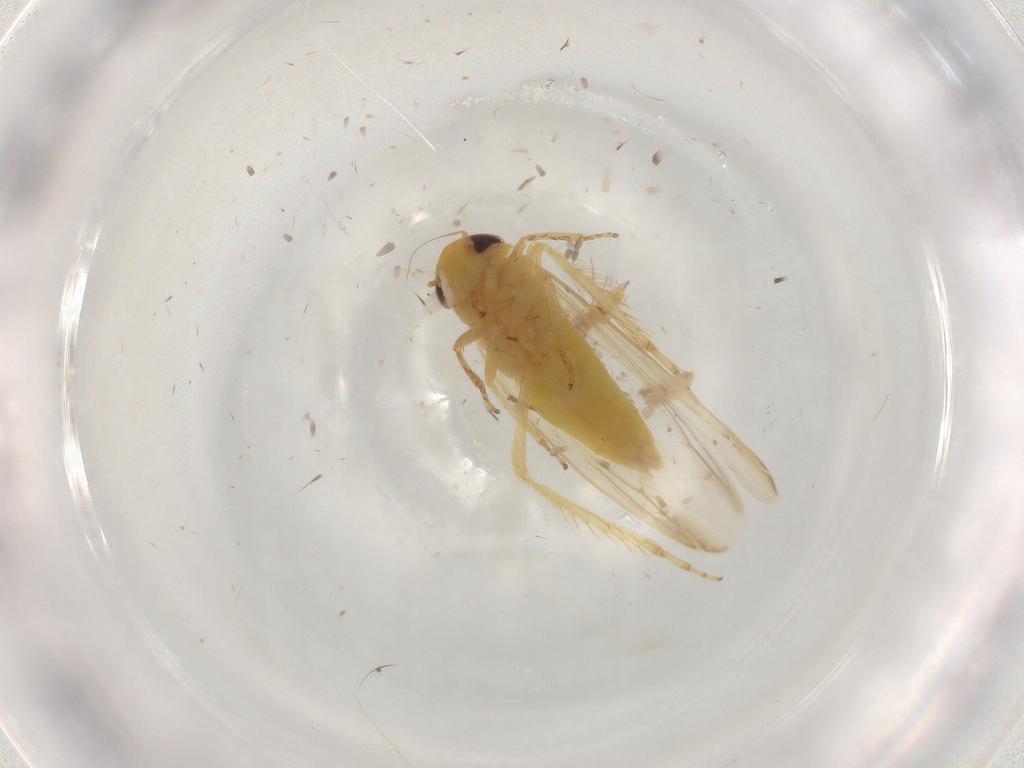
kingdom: Animalia
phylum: Arthropoda
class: Insecta
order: Hemiptera
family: Cicadellidae
